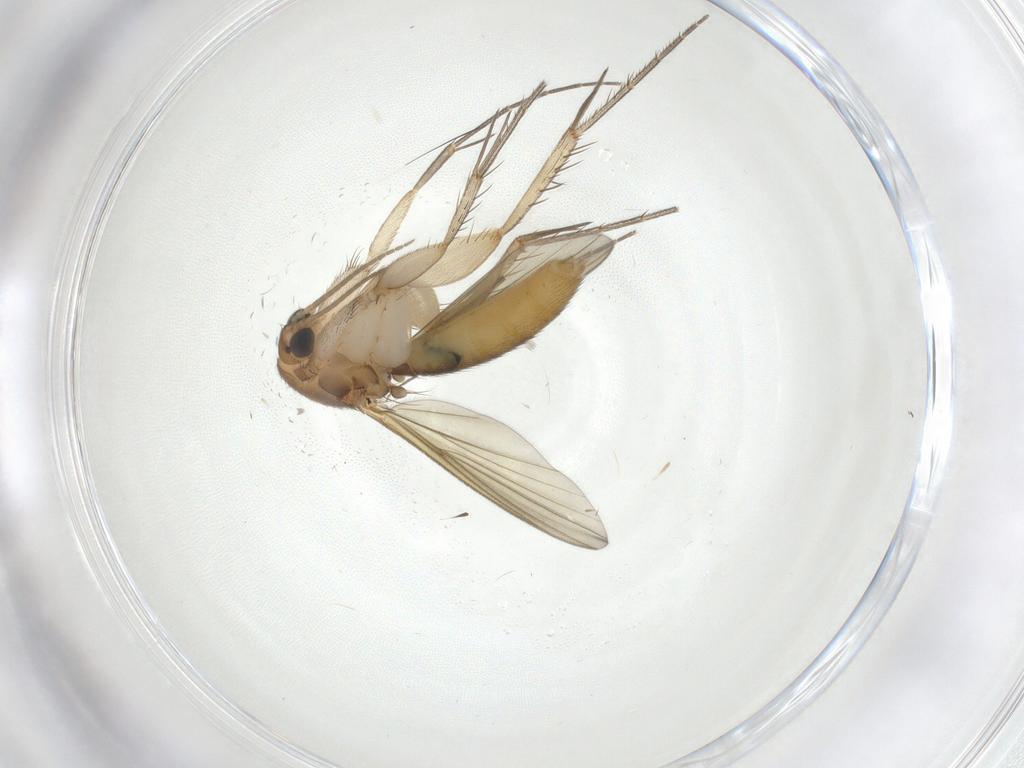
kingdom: Animalia
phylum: Arthropoda
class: Insecta
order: Diptera
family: Mycetophilidae
